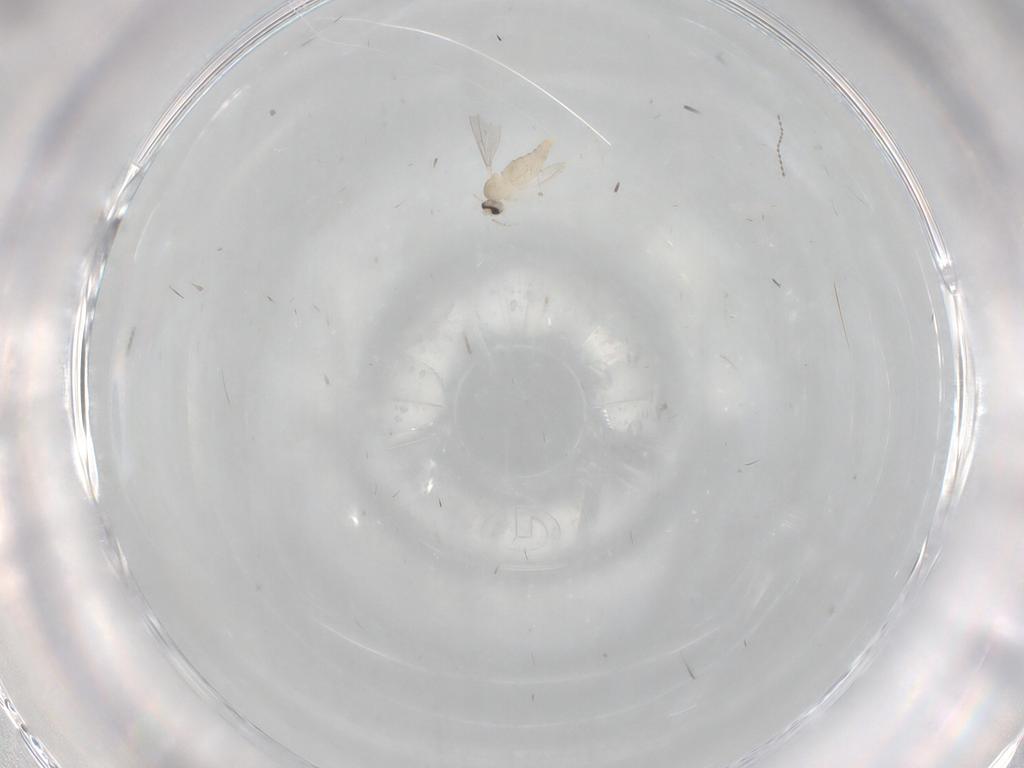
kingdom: Animalia
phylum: Arthropoda
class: Insecta
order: Diptera
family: Cecidomyiidae
